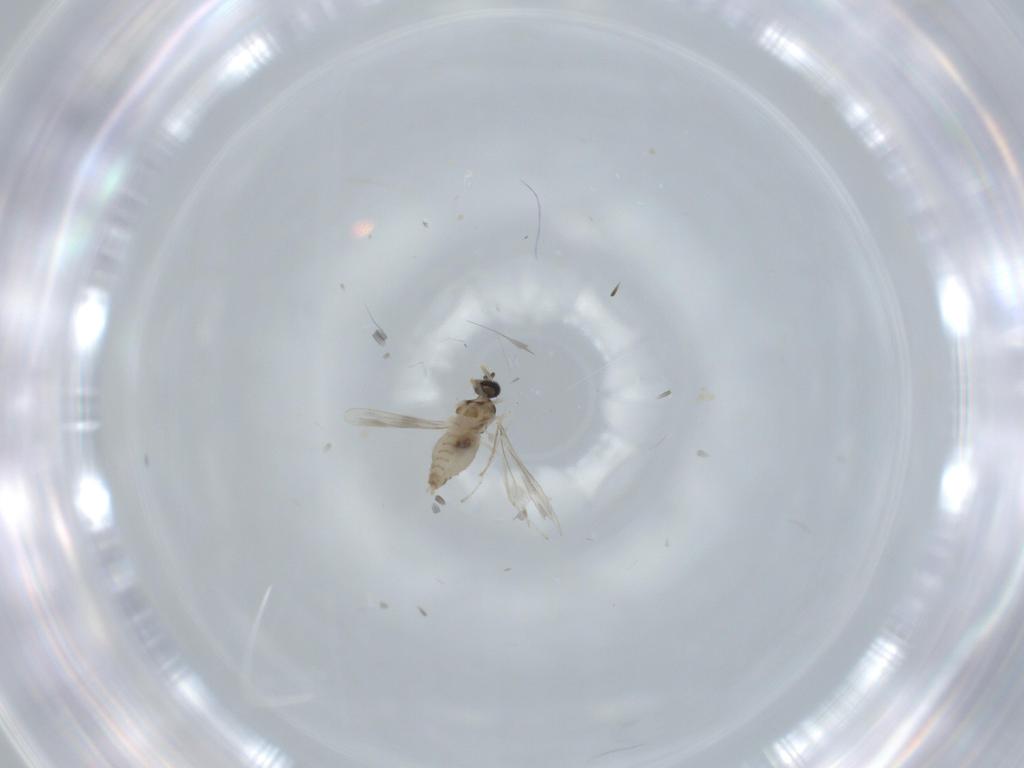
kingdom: Animalia
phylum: Arthropoda
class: Insecta
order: Diptera
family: Cecidomyiidae
